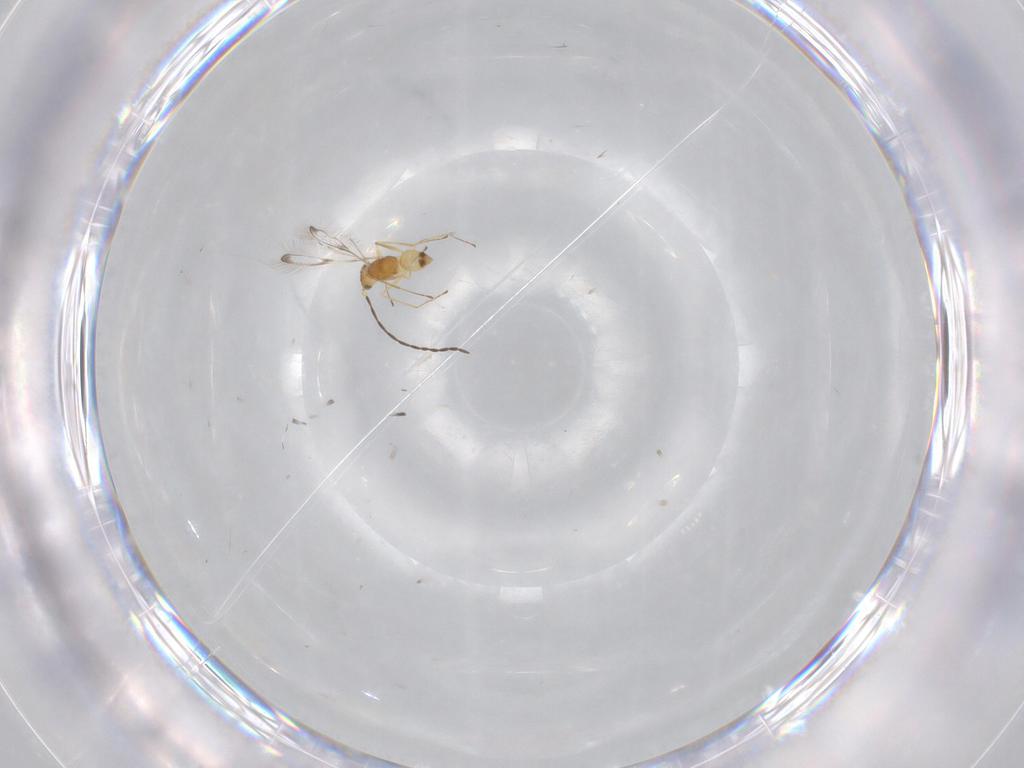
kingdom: Animalia
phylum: Arthropoda
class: Insecta
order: Hymenoptera
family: Mymaridae
